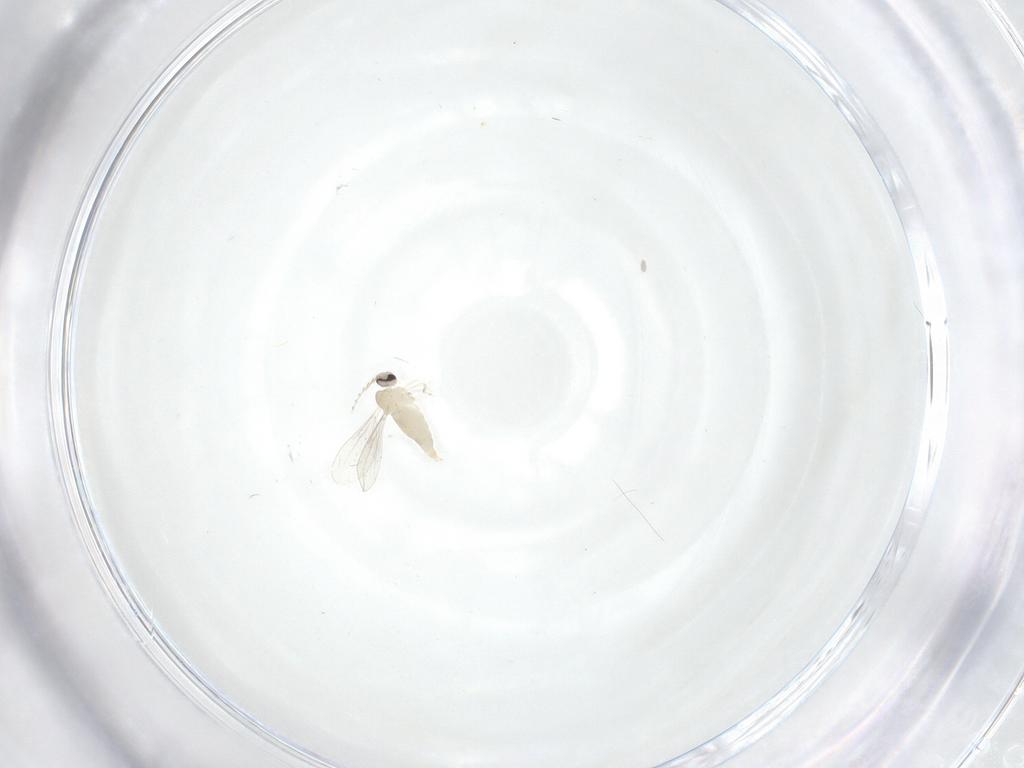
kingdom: Animalia
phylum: Arthropoda
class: Insecta
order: Diptera
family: Cecidomyiidae
